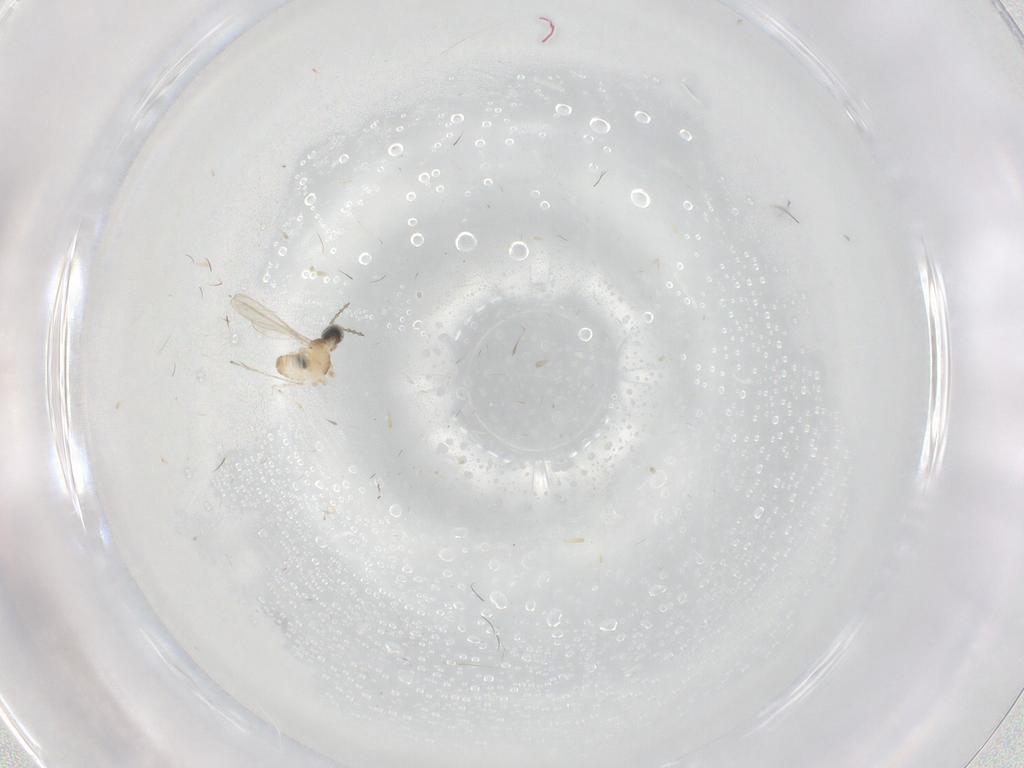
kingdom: Animalia
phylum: Arthropoda
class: Insecta
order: Diptera
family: Cecidomyiidae
